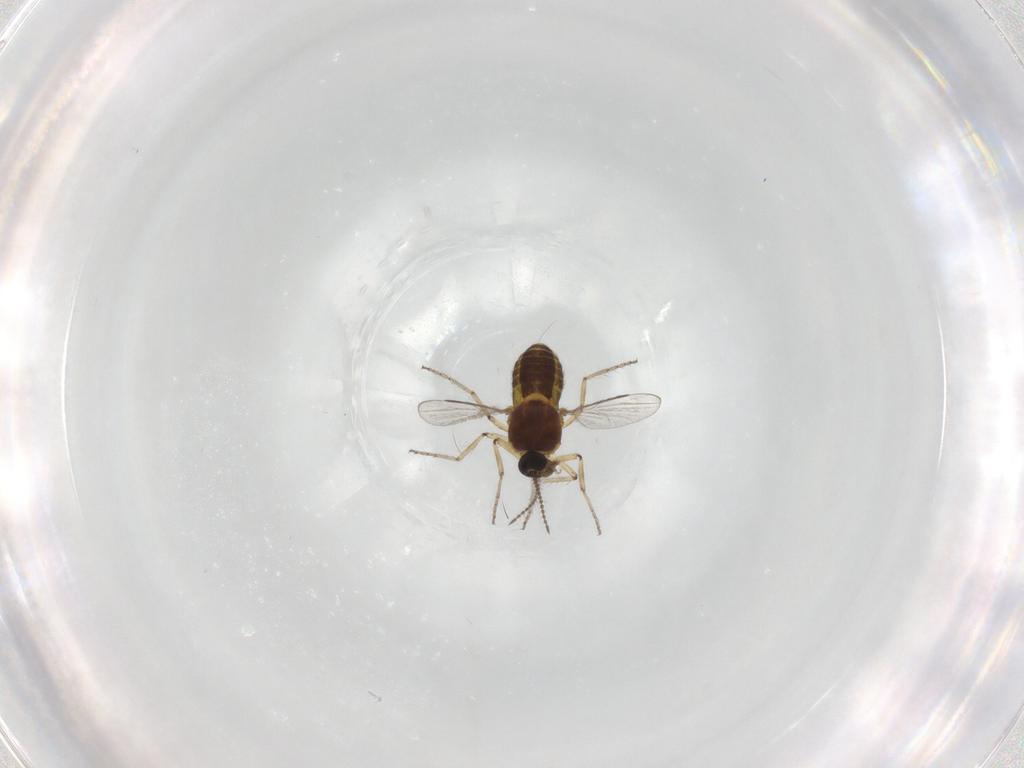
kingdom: Animalia
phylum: Arthropoda
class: Insecta
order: Diptera
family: Ceratopogonidae
